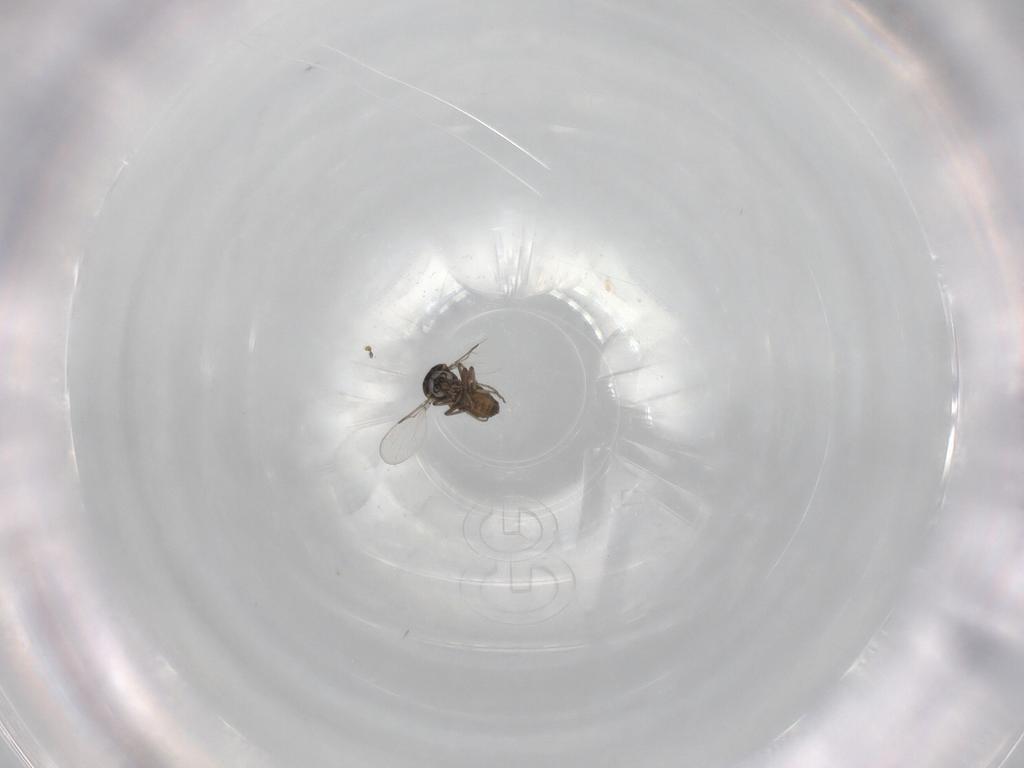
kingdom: Animalia
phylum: Arthropoda
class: Insecta
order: Diptera
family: Ceratopogonidae
